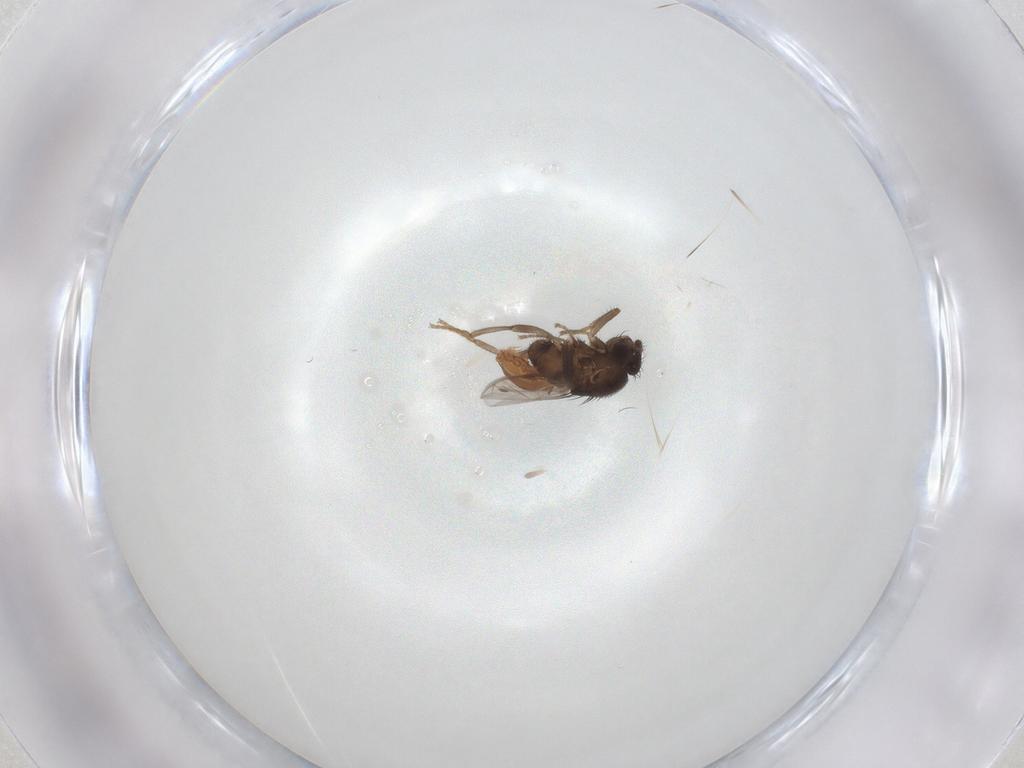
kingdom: Animalia
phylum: Arthropoda
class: Insecta
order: Diptera
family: Chloropidae
